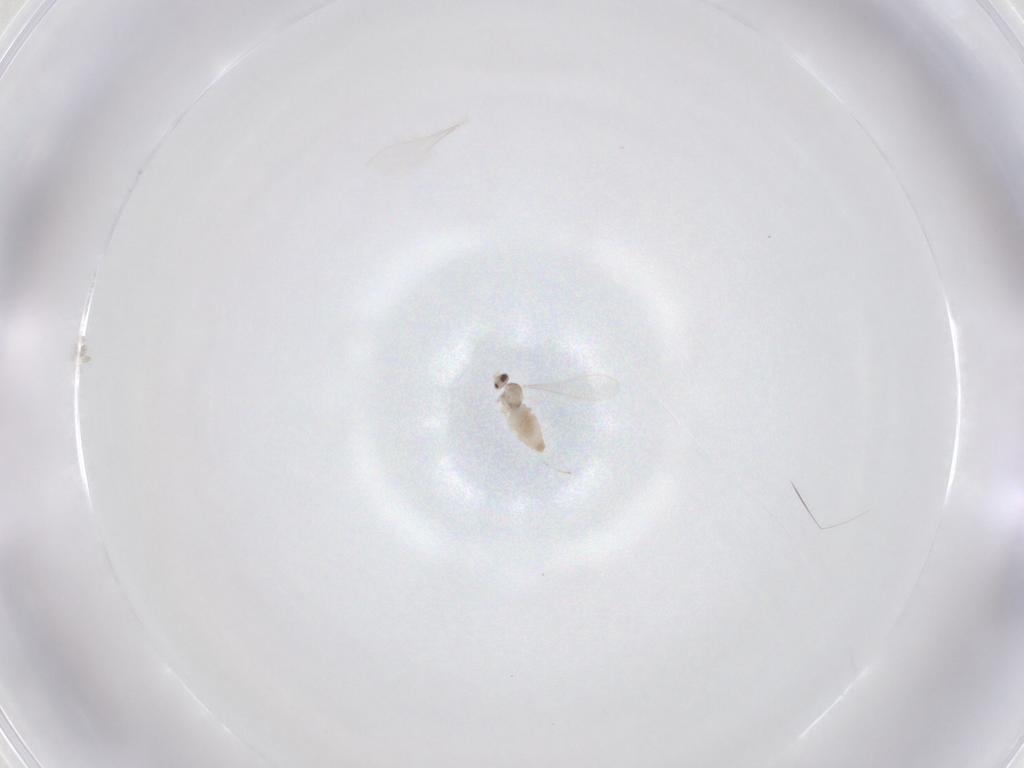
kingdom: Animalia
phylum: Arthropoda
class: Insecta
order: Diptera
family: Cecidomyiidae
